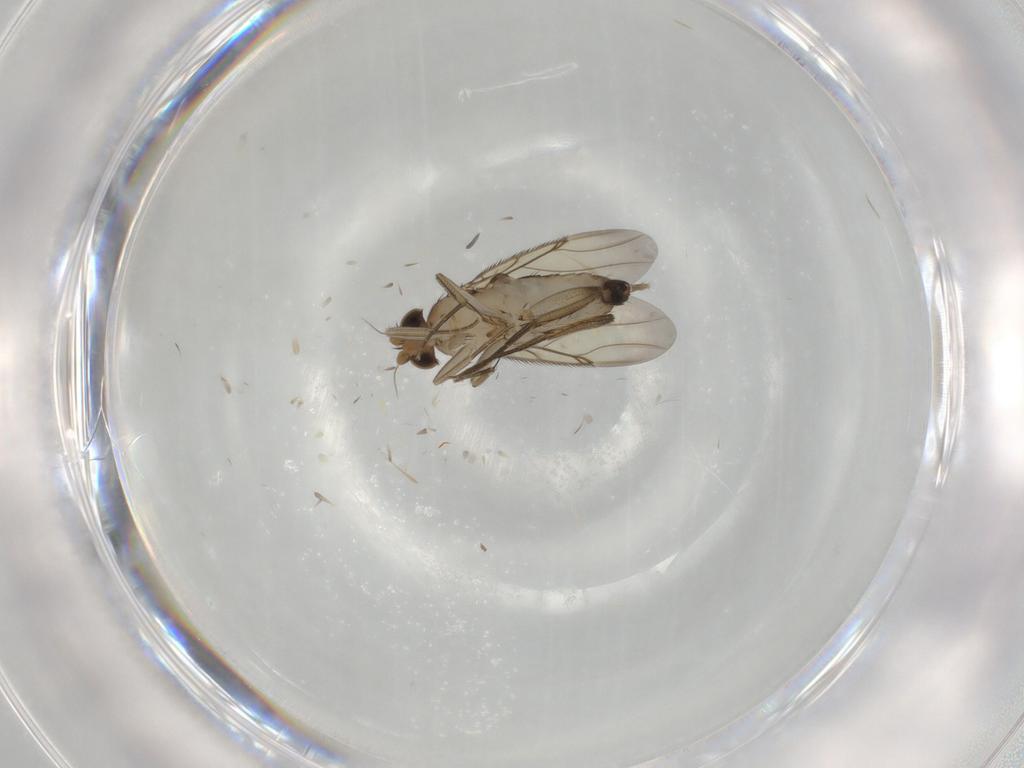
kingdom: Animalia
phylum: Arthropoda
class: Insecta
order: Diptera
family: Phoridae
